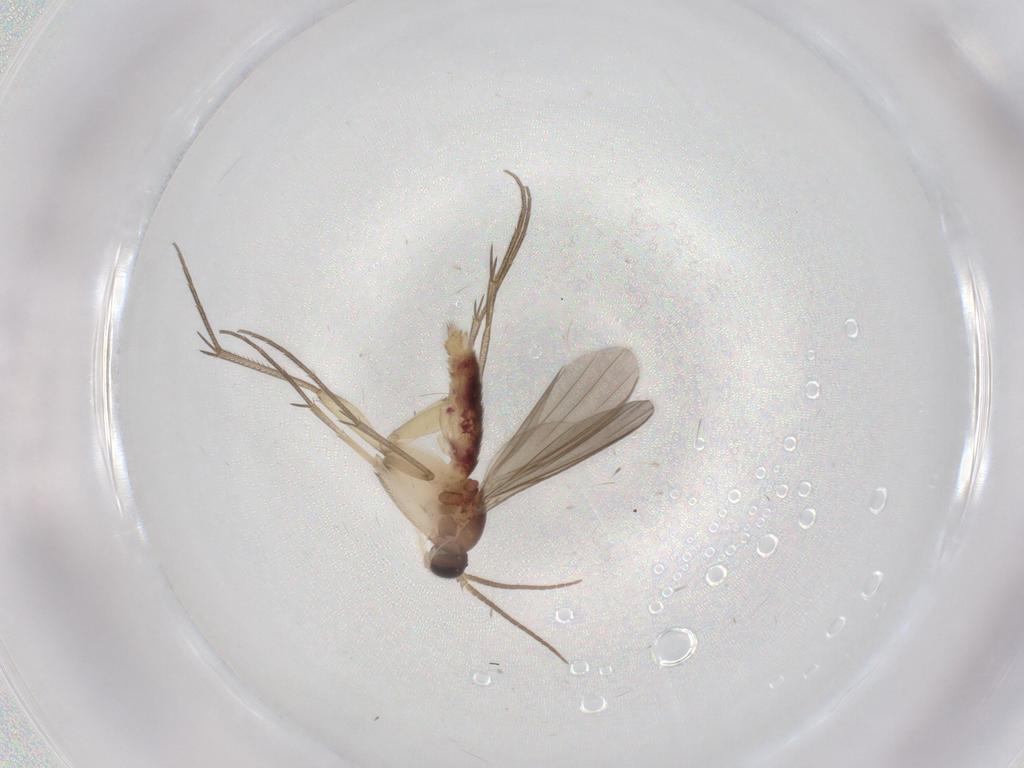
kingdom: Animalia
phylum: Arthropoda
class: Insecta
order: Diptera
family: Mycetophilidae
